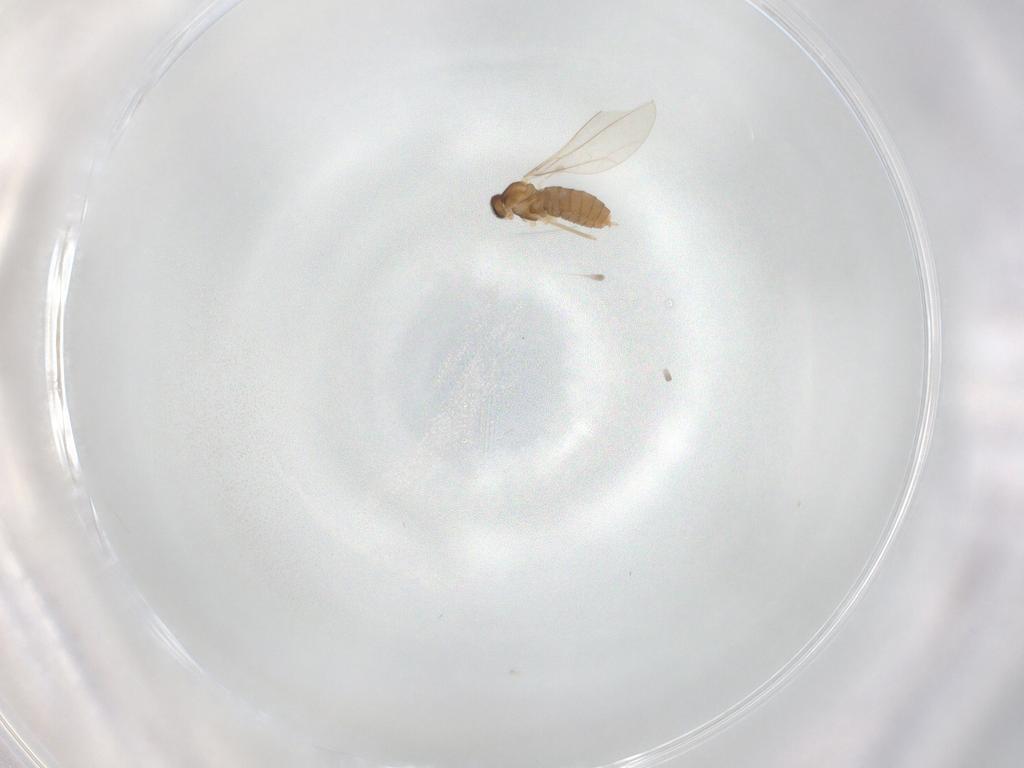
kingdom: Animalia
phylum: Arthropoda
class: Insecta
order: Diptera
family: Cecidomyiidae
